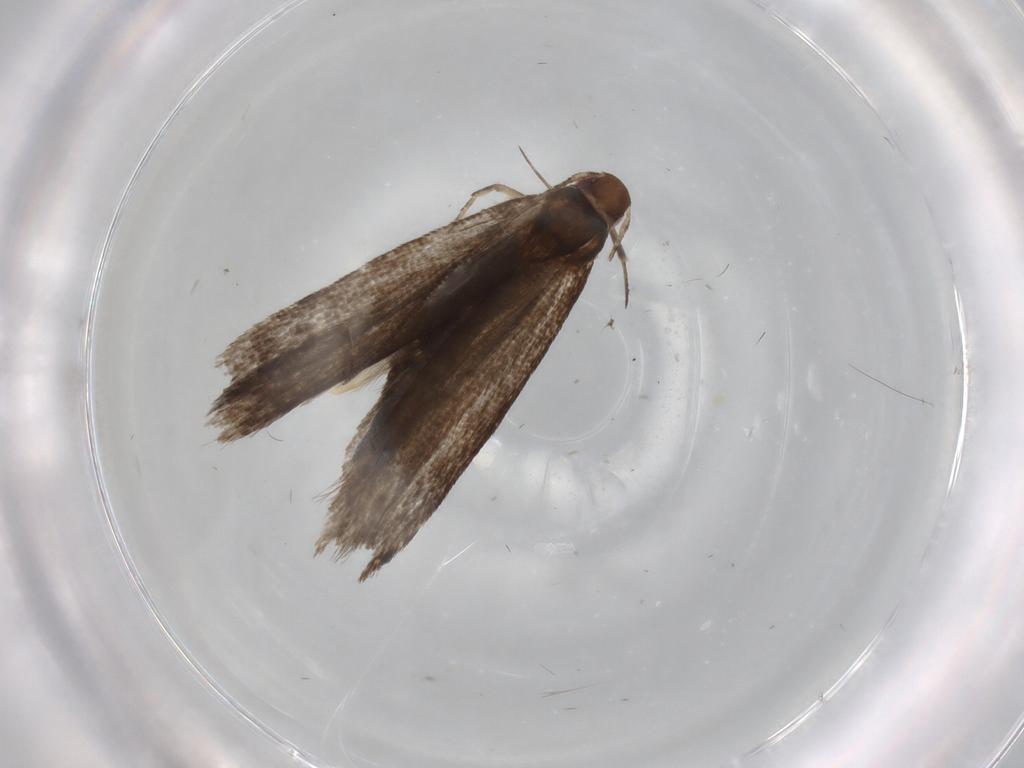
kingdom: Animalia
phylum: Arthropoda
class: Insecta
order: Lepidoptera
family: Gelechiidae
